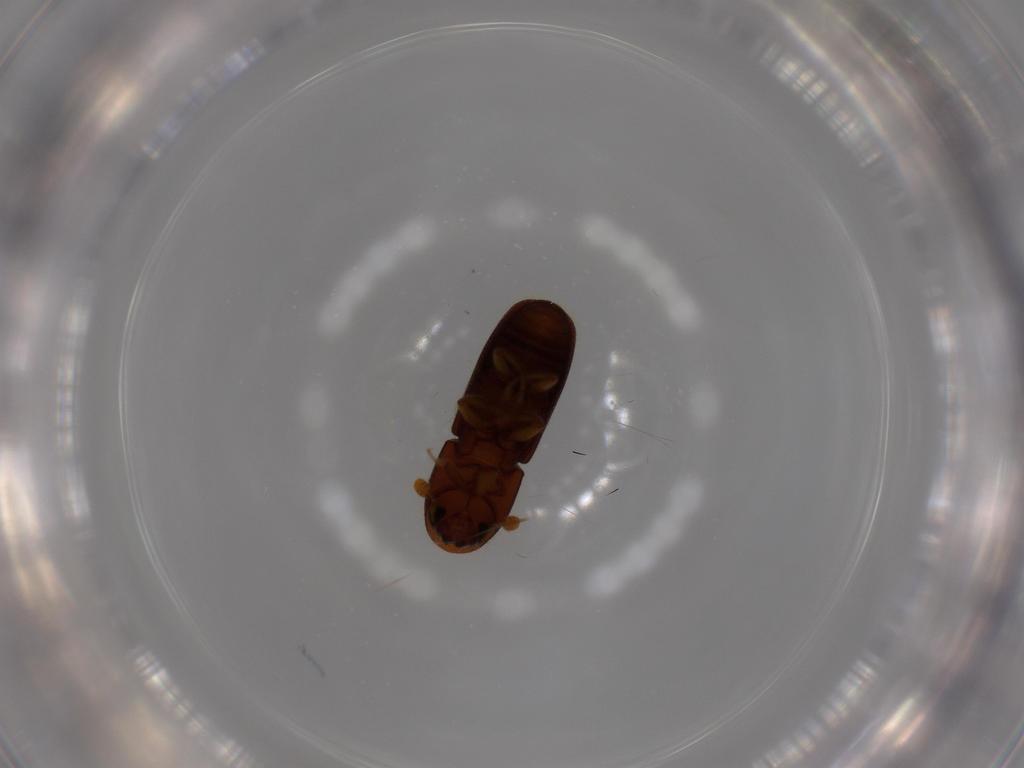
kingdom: Animalia
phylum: Arthropoda
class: Insecta
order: Coleoptera
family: Curculionidae
